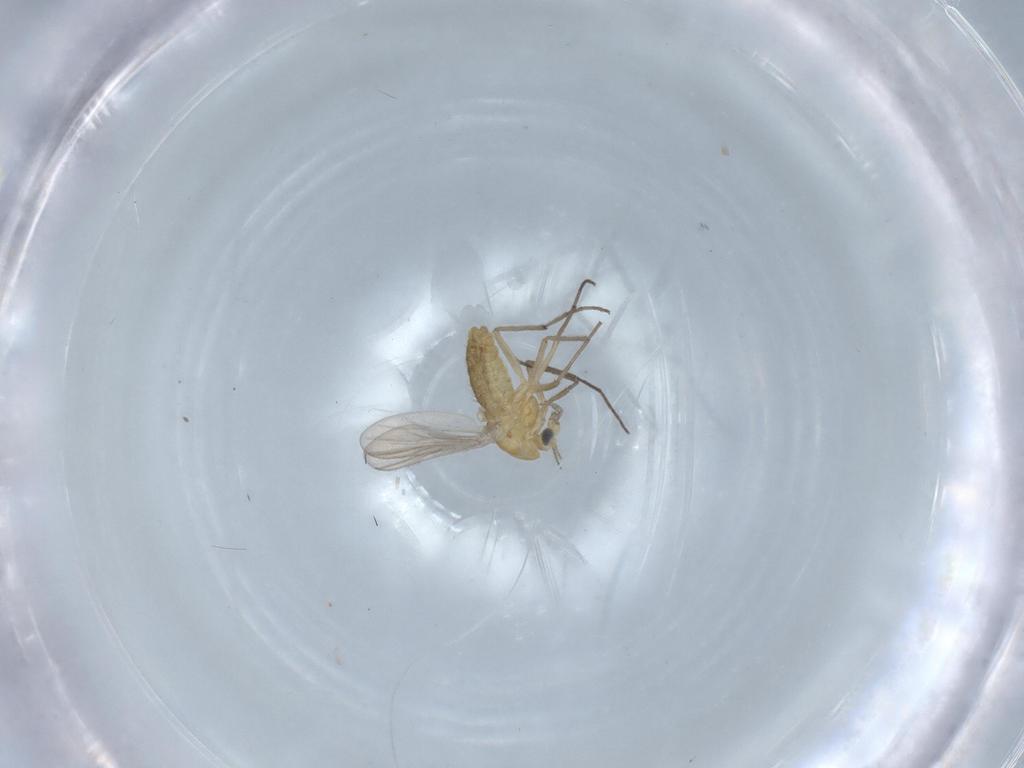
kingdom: Animalia
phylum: Arthropoda
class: Insecta
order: Diptera
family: Chironomidae
